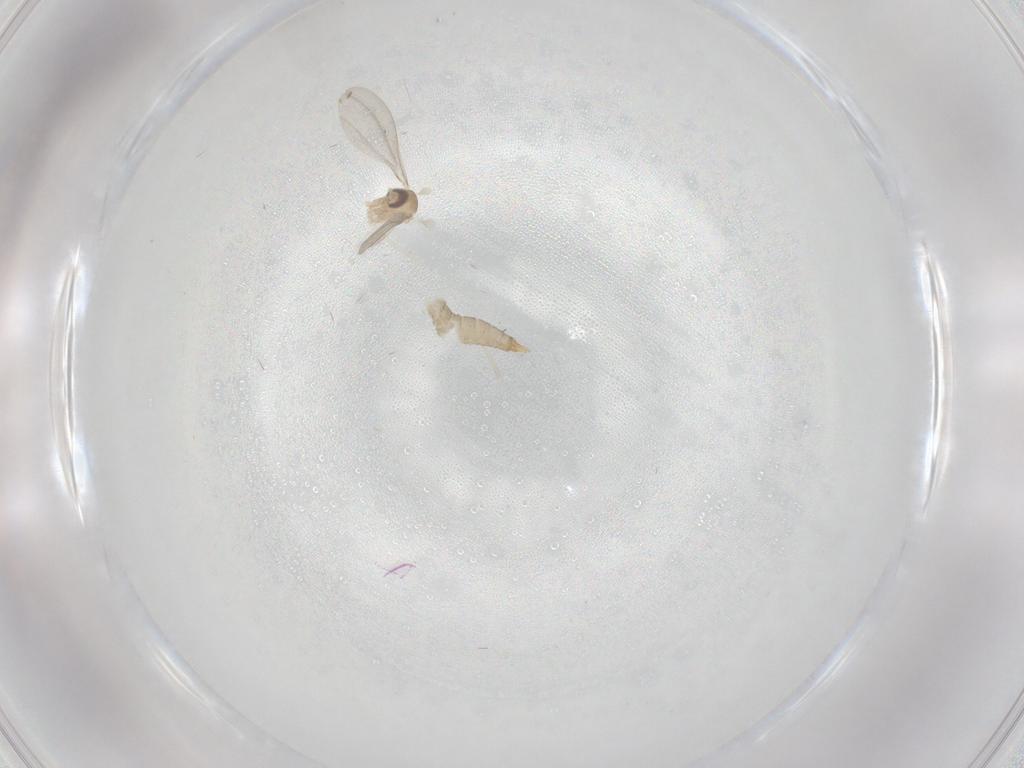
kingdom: Animalia
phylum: Arthropoda
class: Insecta
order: Diptera
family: Cecidomyiidae
